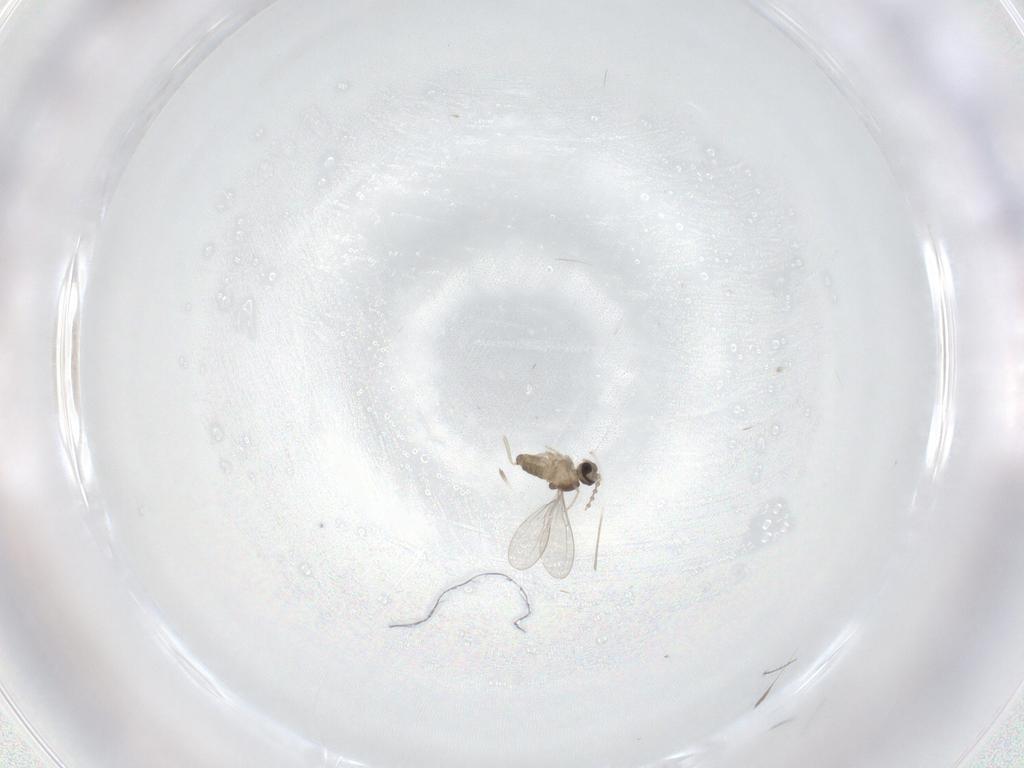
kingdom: Animalia
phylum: Arthropoda
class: Insecta
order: Diptera
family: Cecidomyiidae
